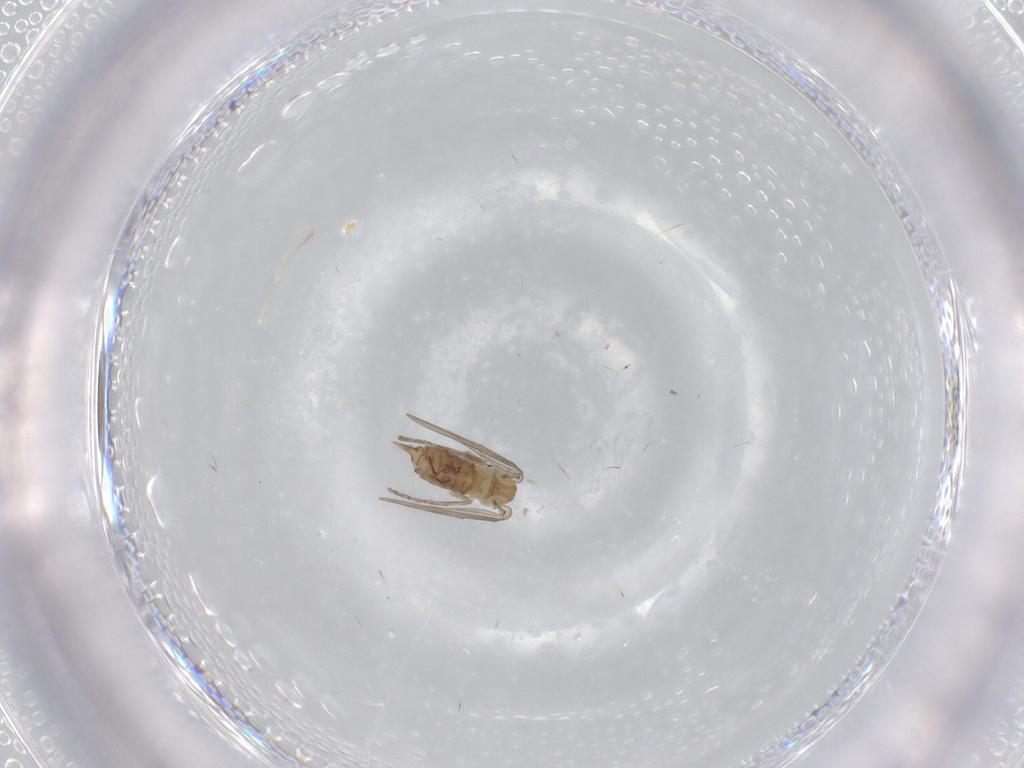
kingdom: Animalia
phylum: Arthropoda
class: Insecta
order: Diptera
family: Psychodidae
